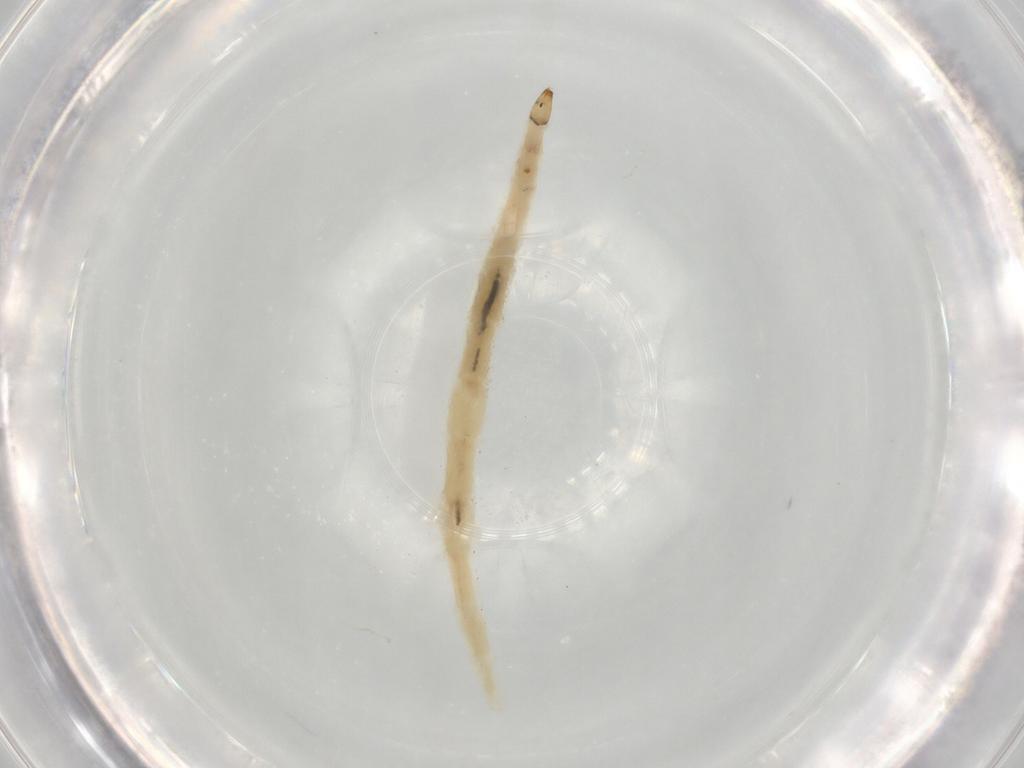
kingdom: Animalia
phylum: Arthropoda
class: Insecta
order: Diptera
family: Ceratopogonidae
